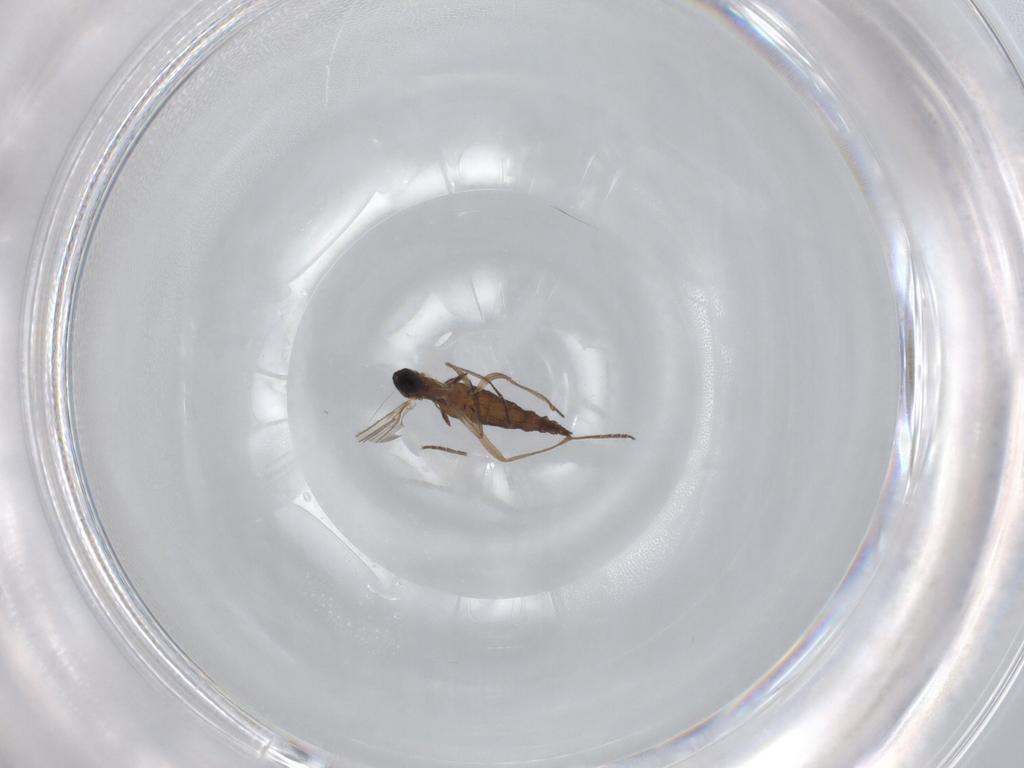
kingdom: Animalia
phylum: Arthropoda
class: Insecta
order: Diptera
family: Sciaridae
